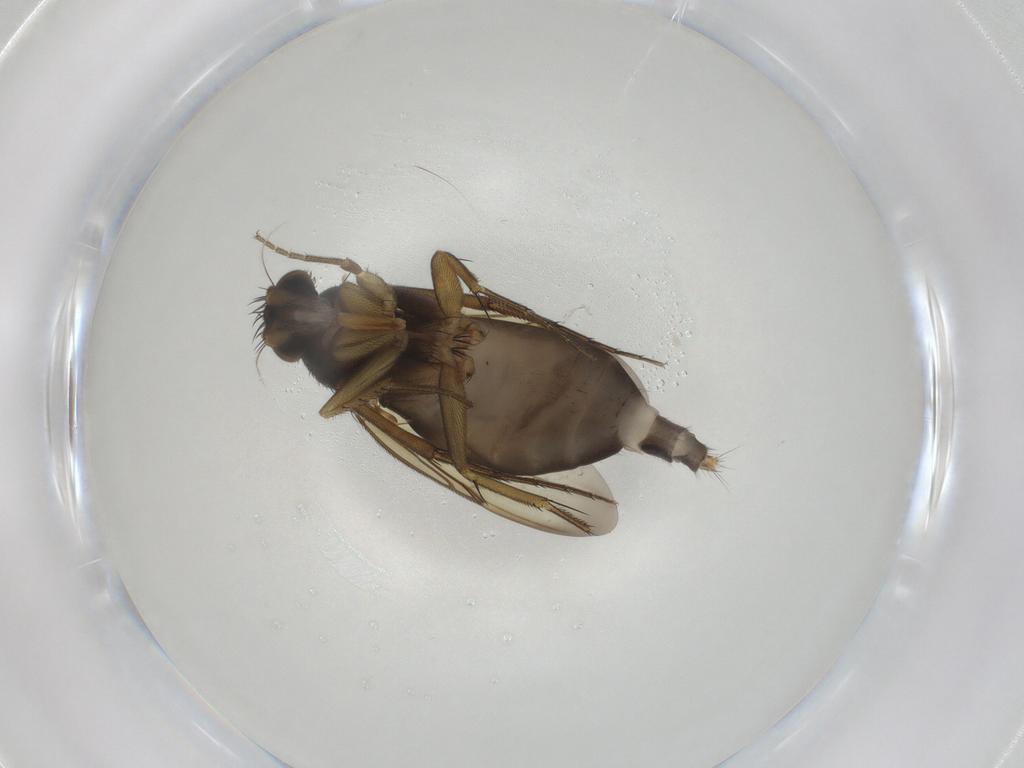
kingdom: Animalia
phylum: Arthropoda
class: Insecta
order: Diptera
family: Phoridae
